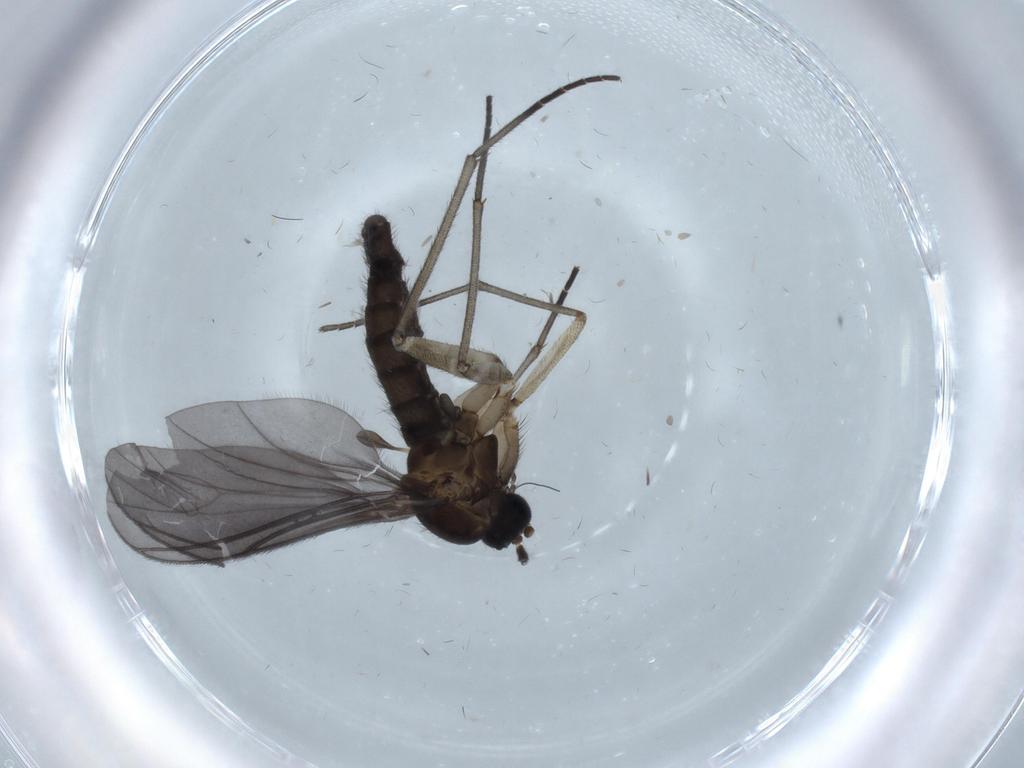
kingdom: Animalia
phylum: Arthropoda
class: Insecta
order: Diptera
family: Sciaridae
